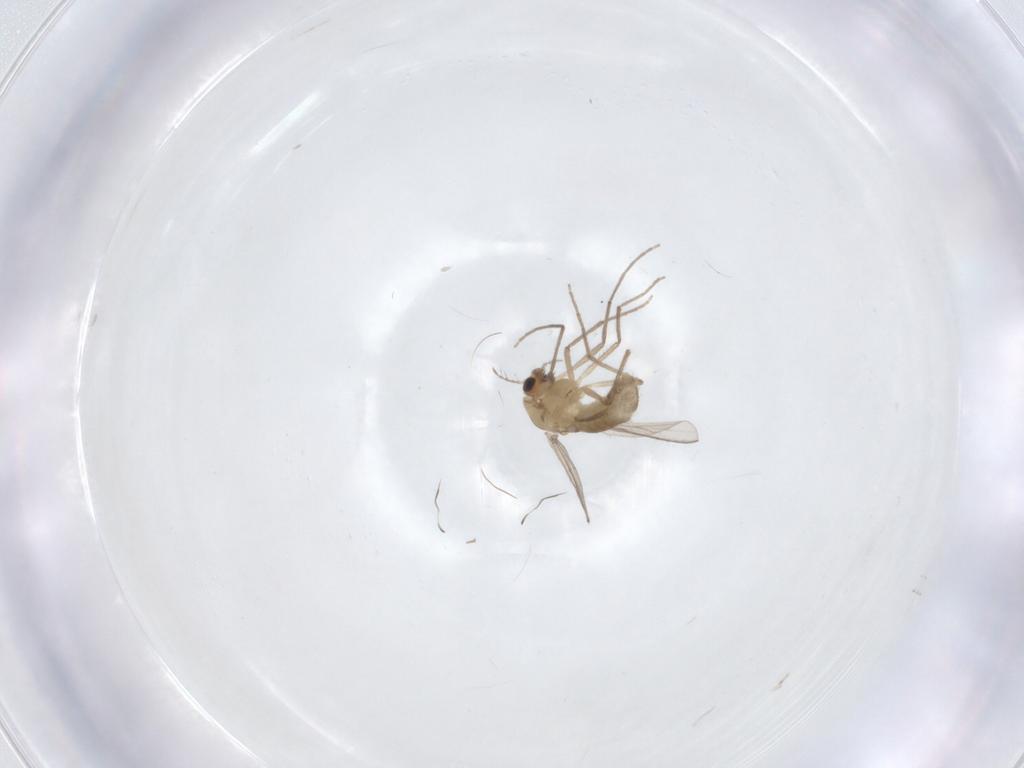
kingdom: Animalia
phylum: Arthropoda
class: Insecta
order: Diptera
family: Chironomidae
